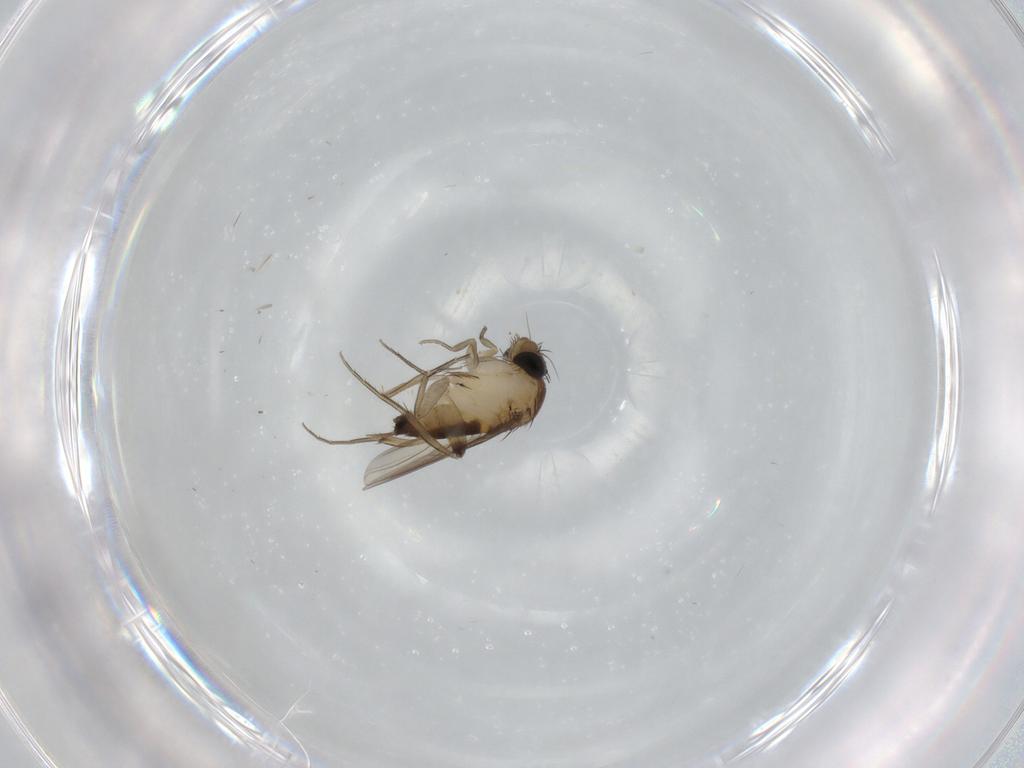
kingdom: Animalia
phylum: Arthropoda
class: Insecta
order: Diptera
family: Phoridae
